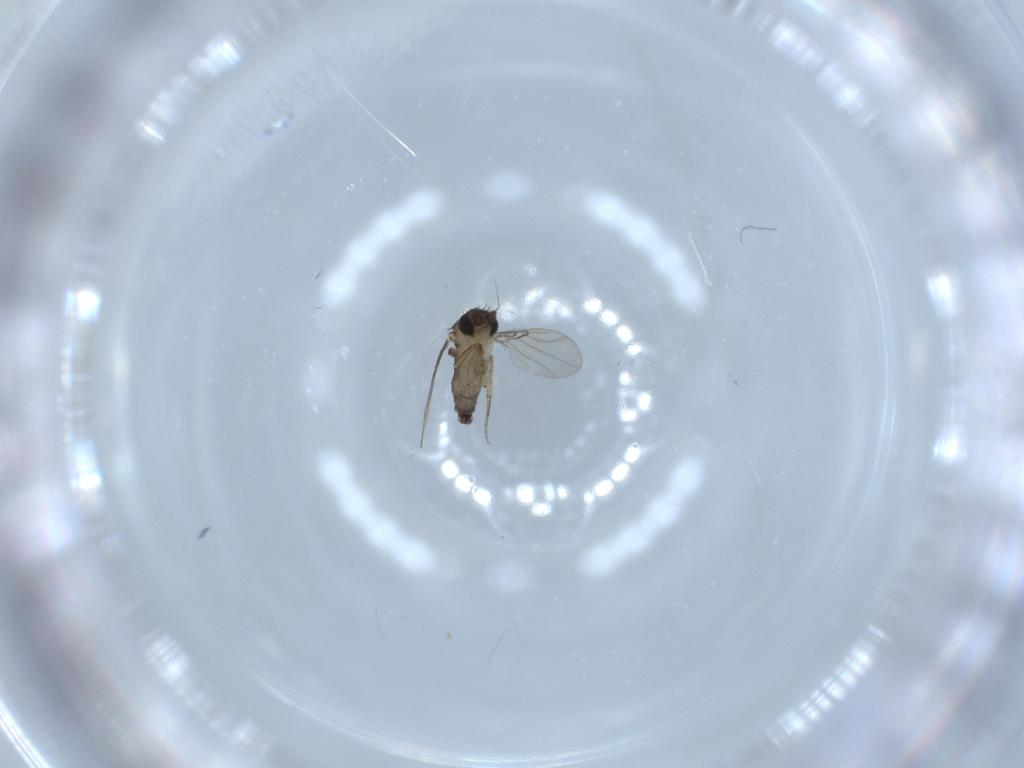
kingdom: Animalia
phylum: Arthropoda
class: Insecta
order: Diptera
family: Phoridae
